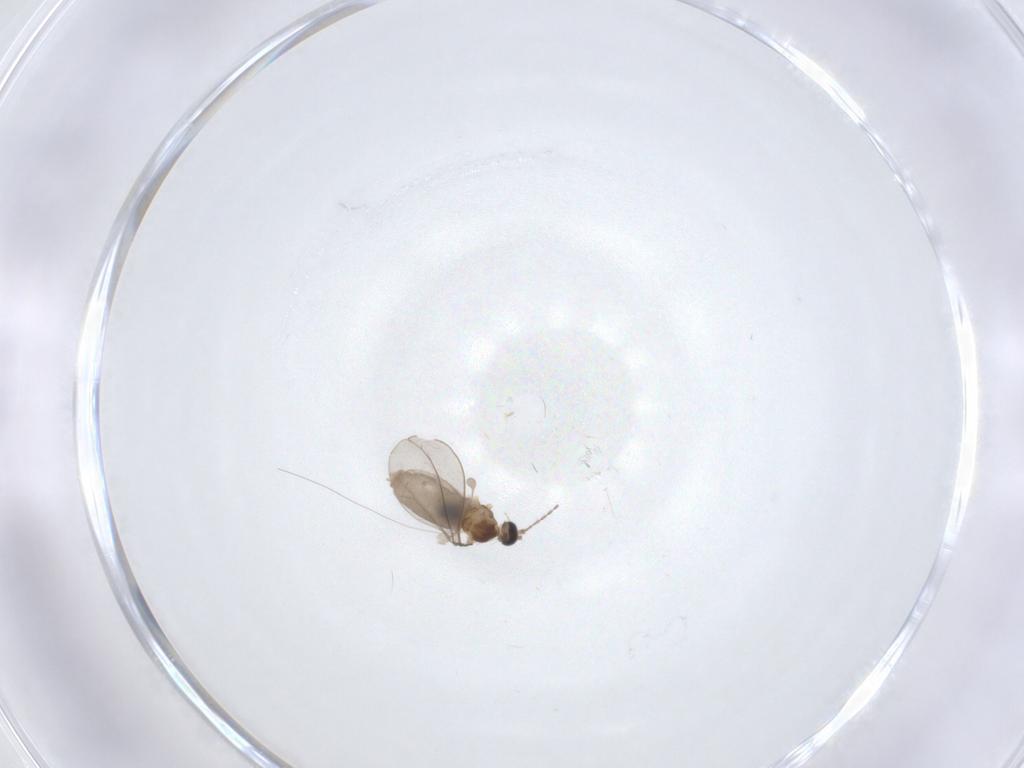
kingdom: Animalia
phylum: Arthropoda
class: Insecta
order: Diptera
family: Cecidomyiidae
